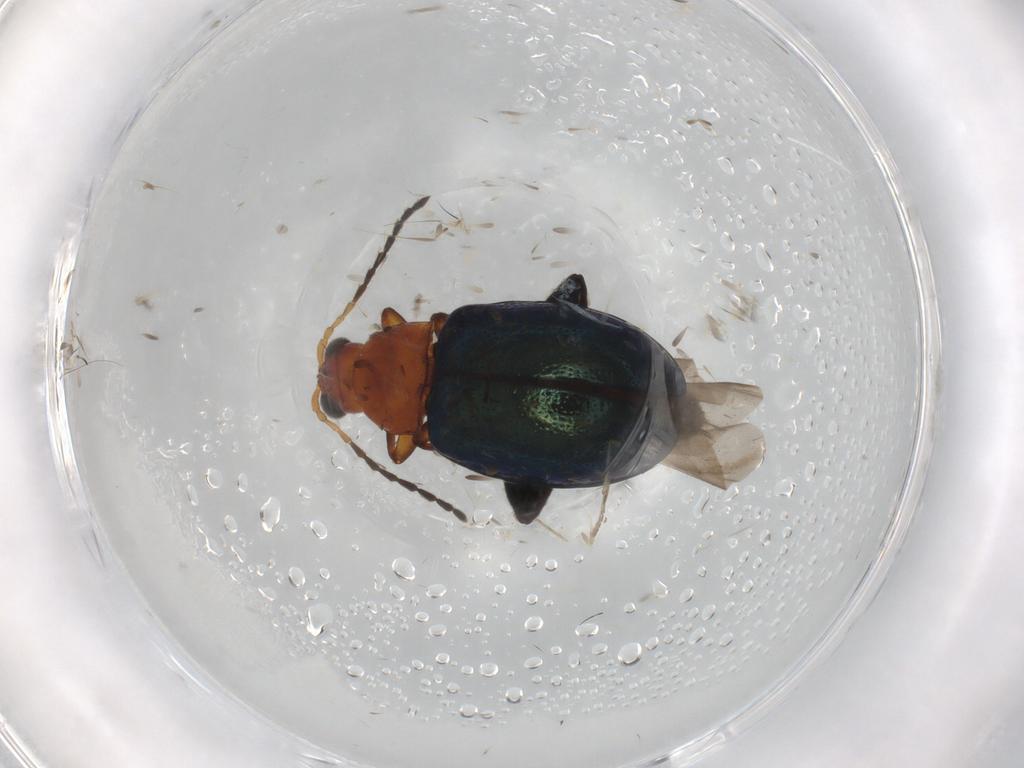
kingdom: Animalia
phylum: Arthropoda
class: Insecta
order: Coleoptera
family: Chrysomelidae
